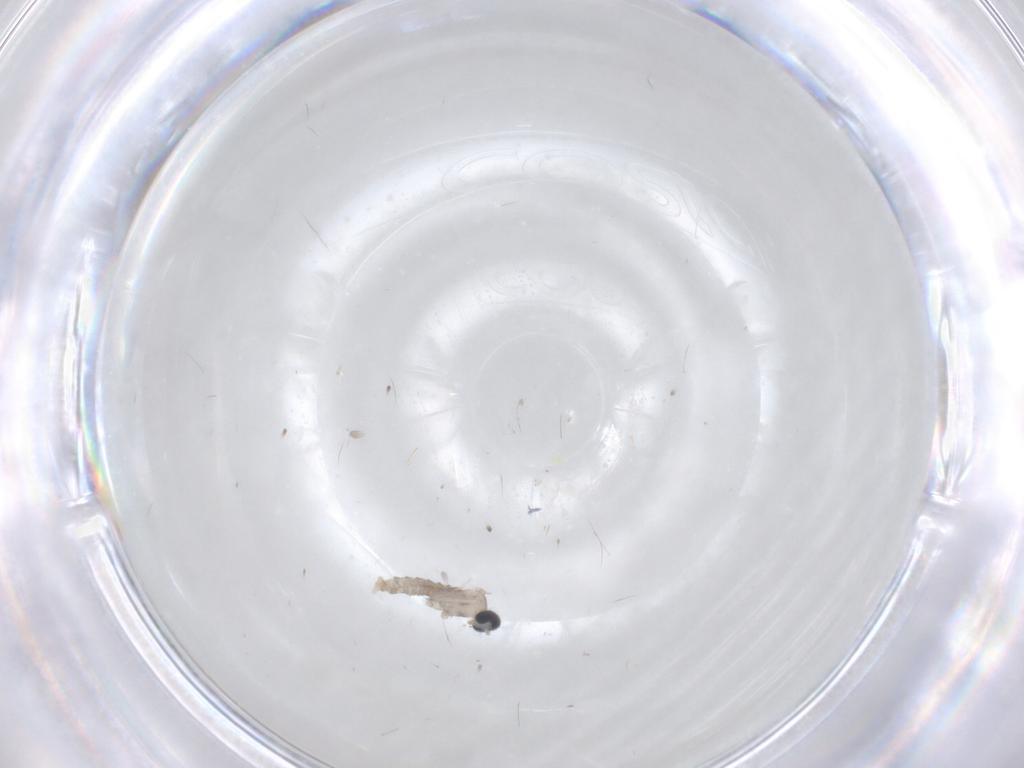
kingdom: Animalia
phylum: Arthropoda
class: Insecta
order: Diptera
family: Cecidomyiidae
